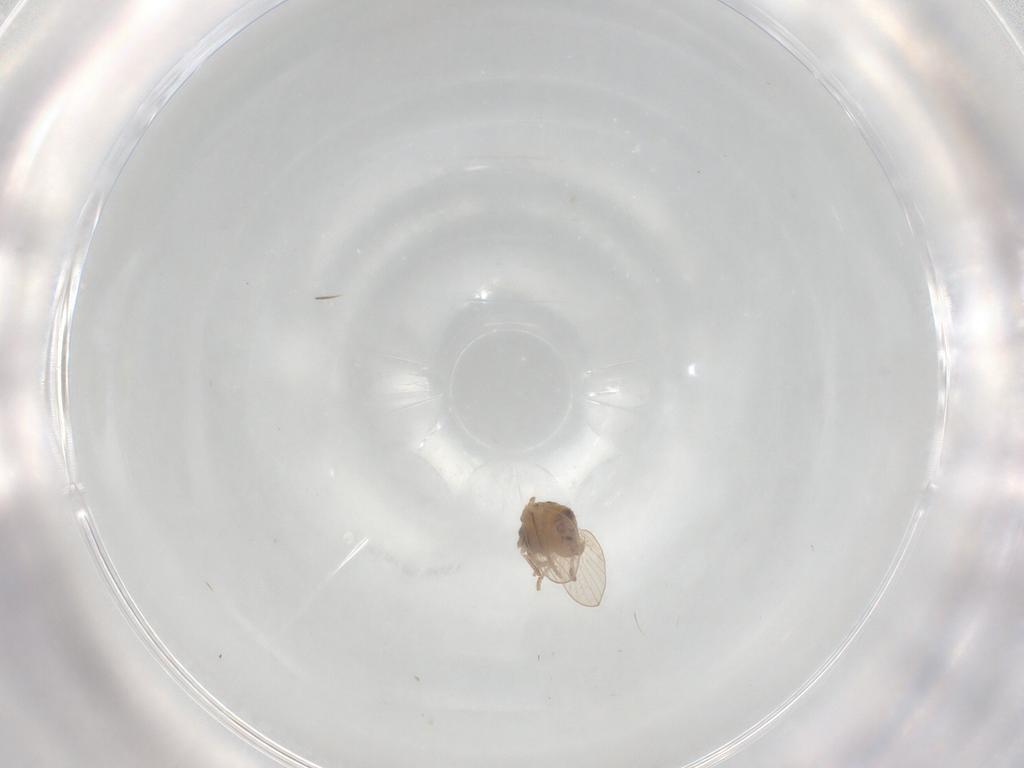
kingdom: Animalia
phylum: Arthropoda
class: Insecta
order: Diptera
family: Psychodidae
